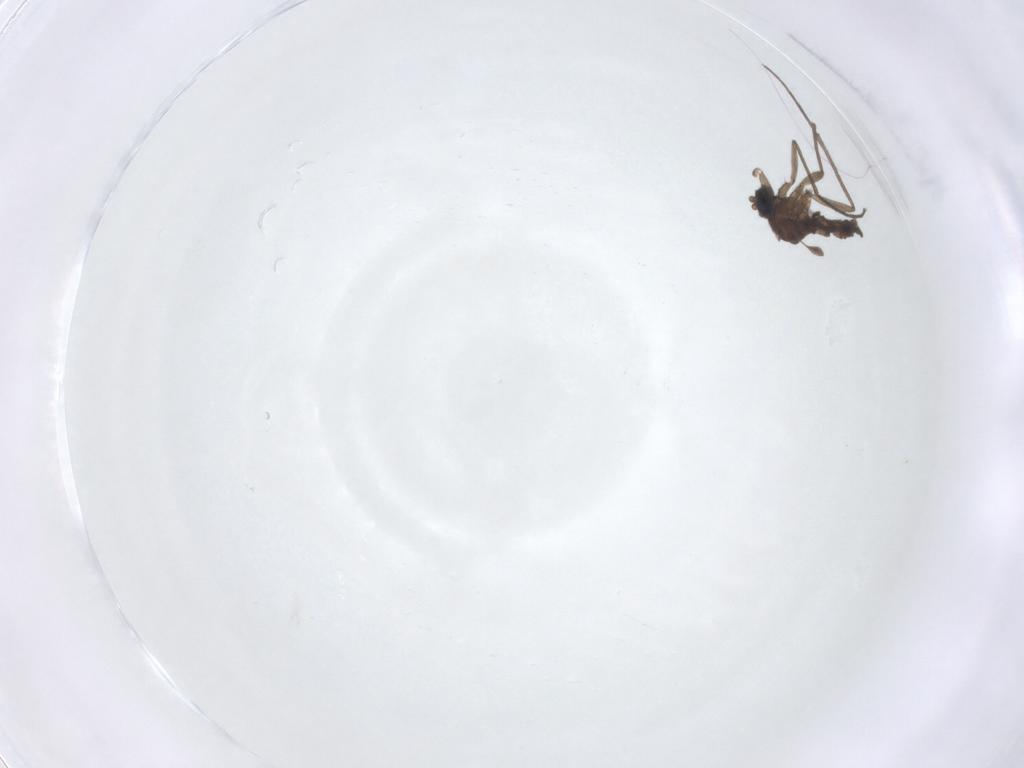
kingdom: Animalia
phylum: Arthropoda
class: Insecta
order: Diptera
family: Sciaridae
